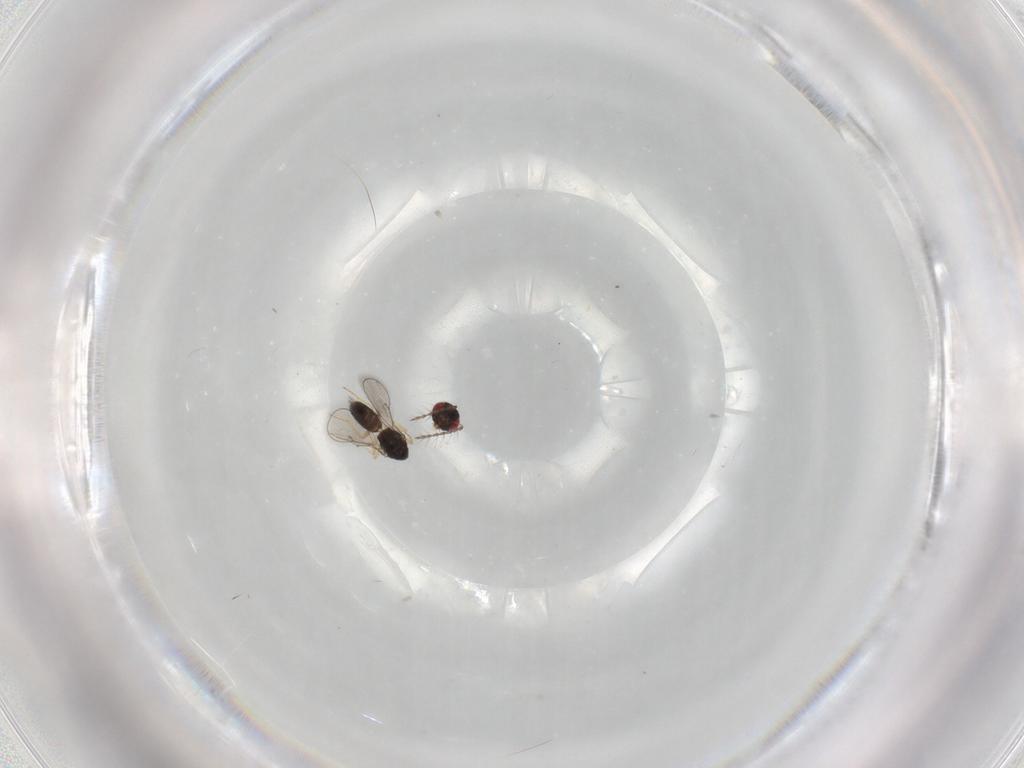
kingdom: Animalia
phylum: Arthropoda
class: Insecta
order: Hymenoptera
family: Eulophidae
